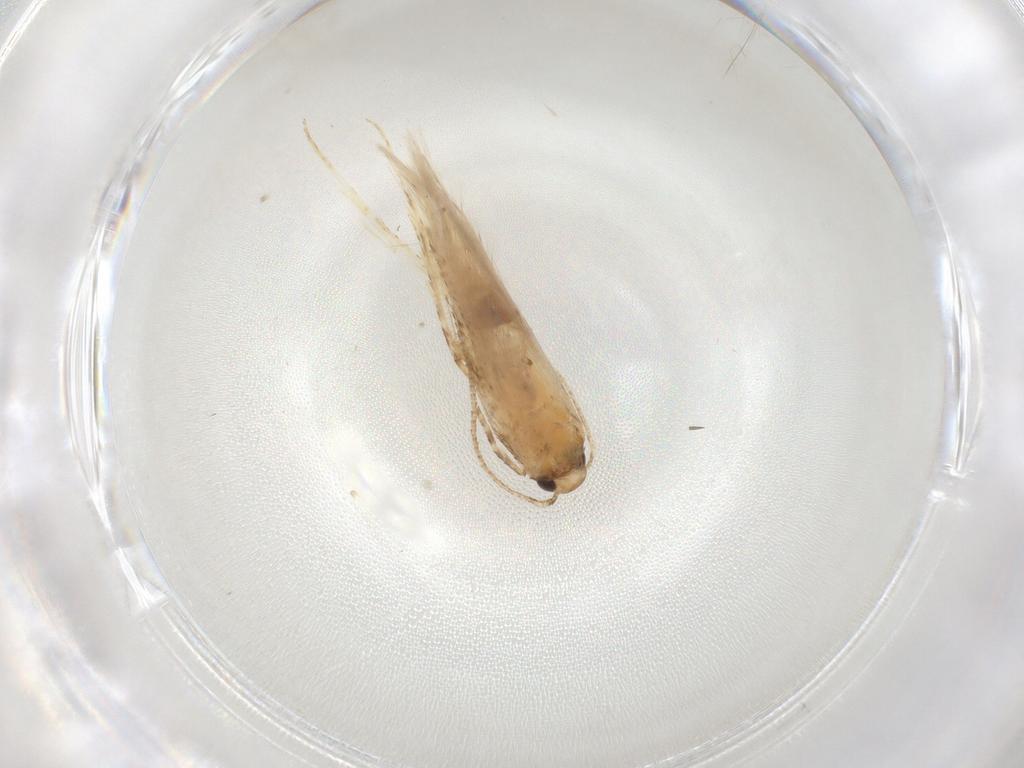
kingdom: Animalia
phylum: Arthropoda
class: Insecta
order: Lepidoptera
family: Gelechiidae
